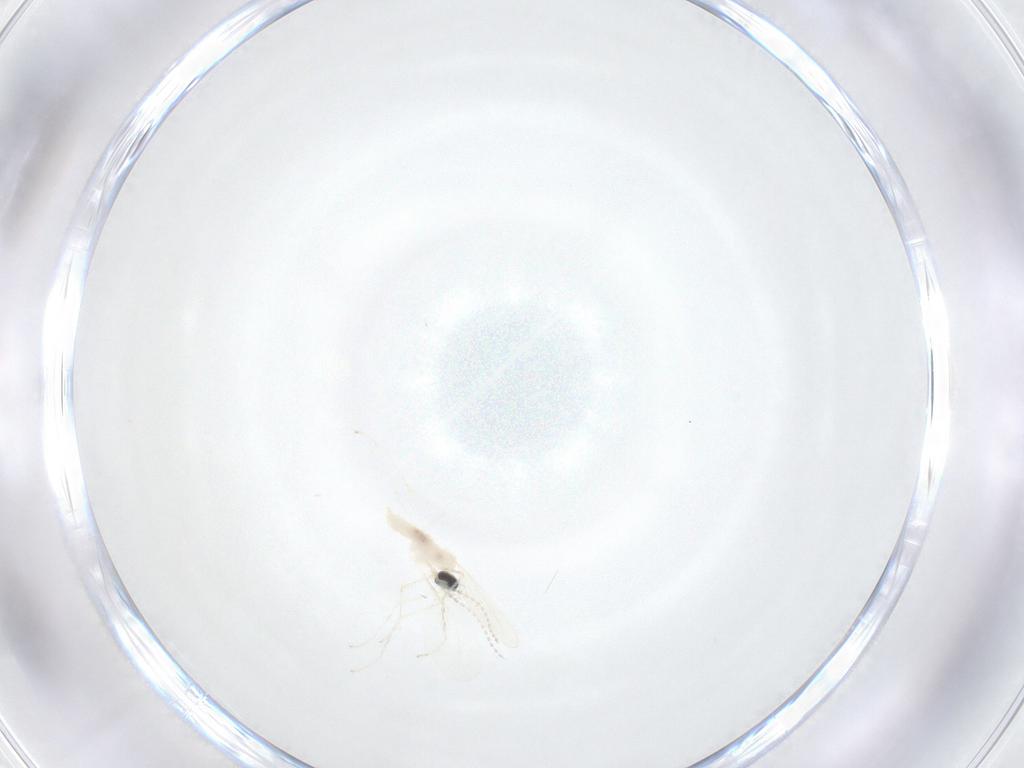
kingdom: Animalia
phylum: Arthropoda
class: Insecta
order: Diptera
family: Cecidomyiidae
